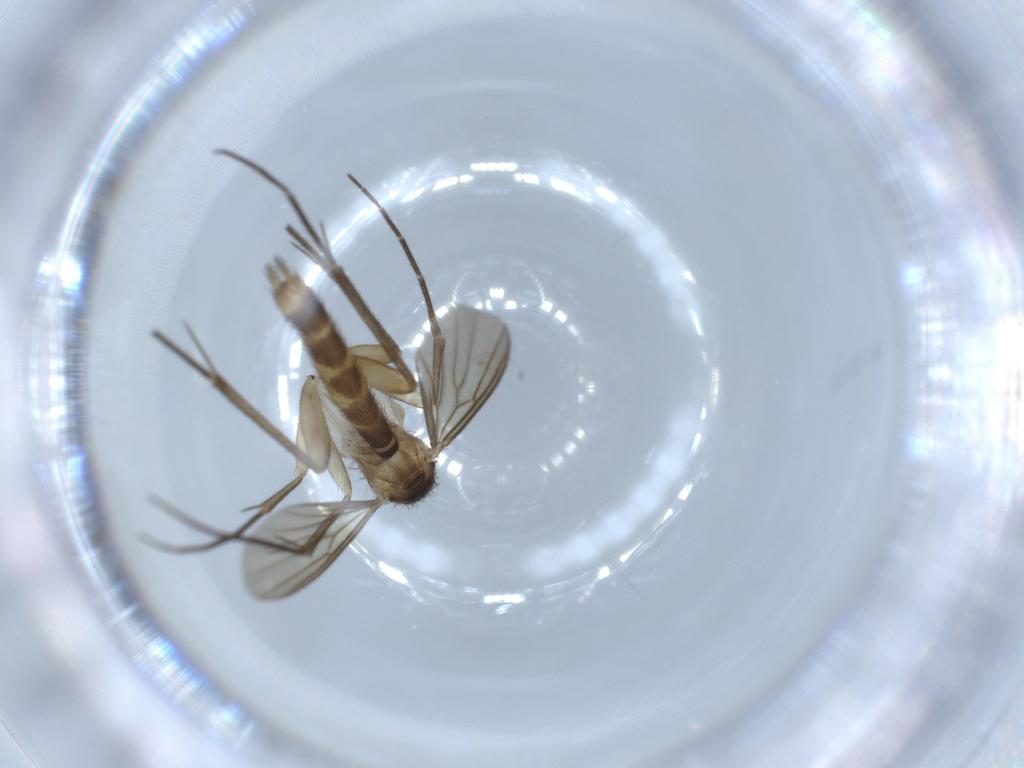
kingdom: Animalia
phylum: Arthropoda
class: Insecta
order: Diptera
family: Mycetophilidae
